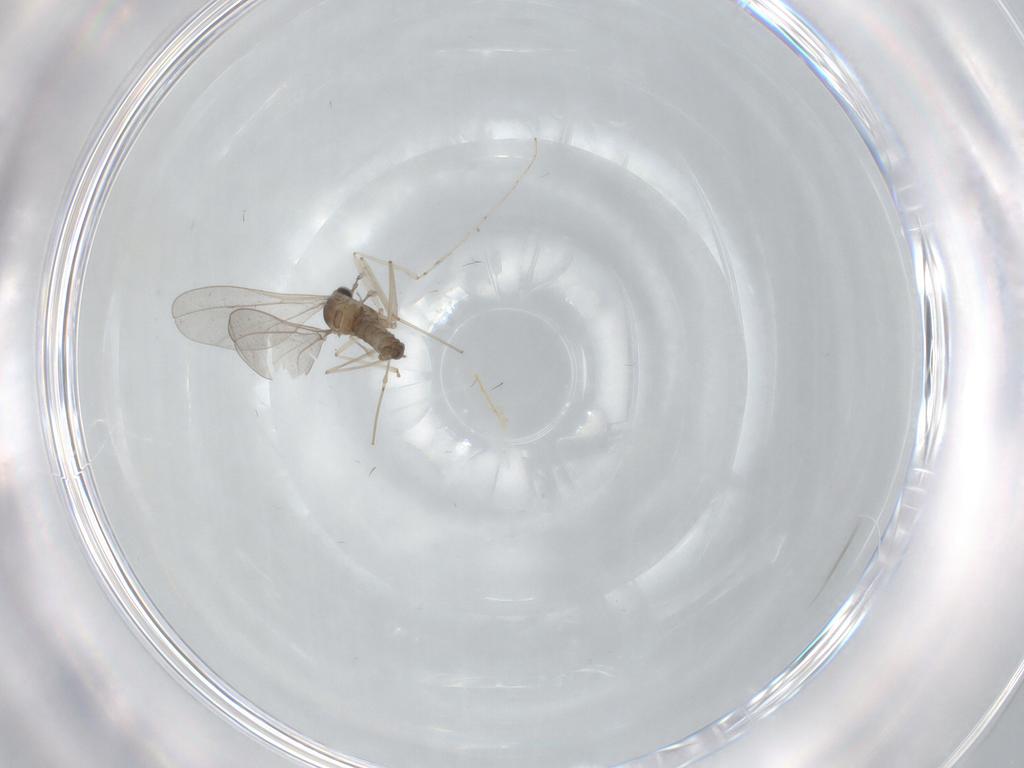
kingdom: Animalia
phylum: Arthropoda
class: Insecta
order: Diptera
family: Cecidomyiidae
